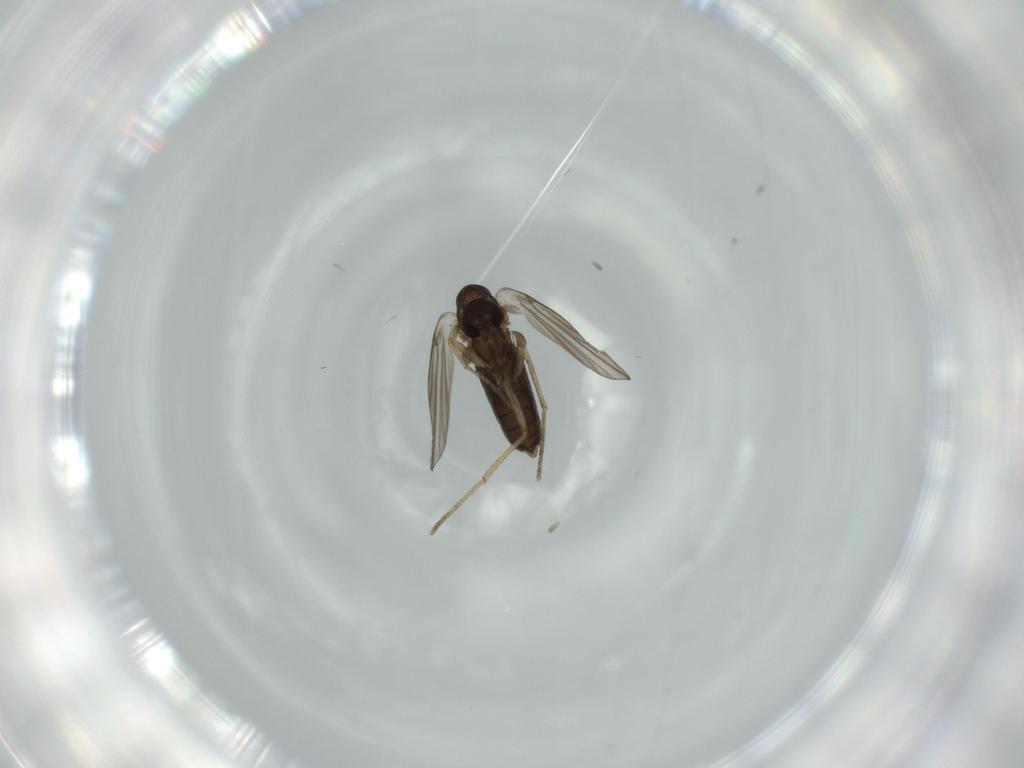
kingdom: Animalia
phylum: Arthropoda
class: Insecta
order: Diptera
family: Psychodidae
